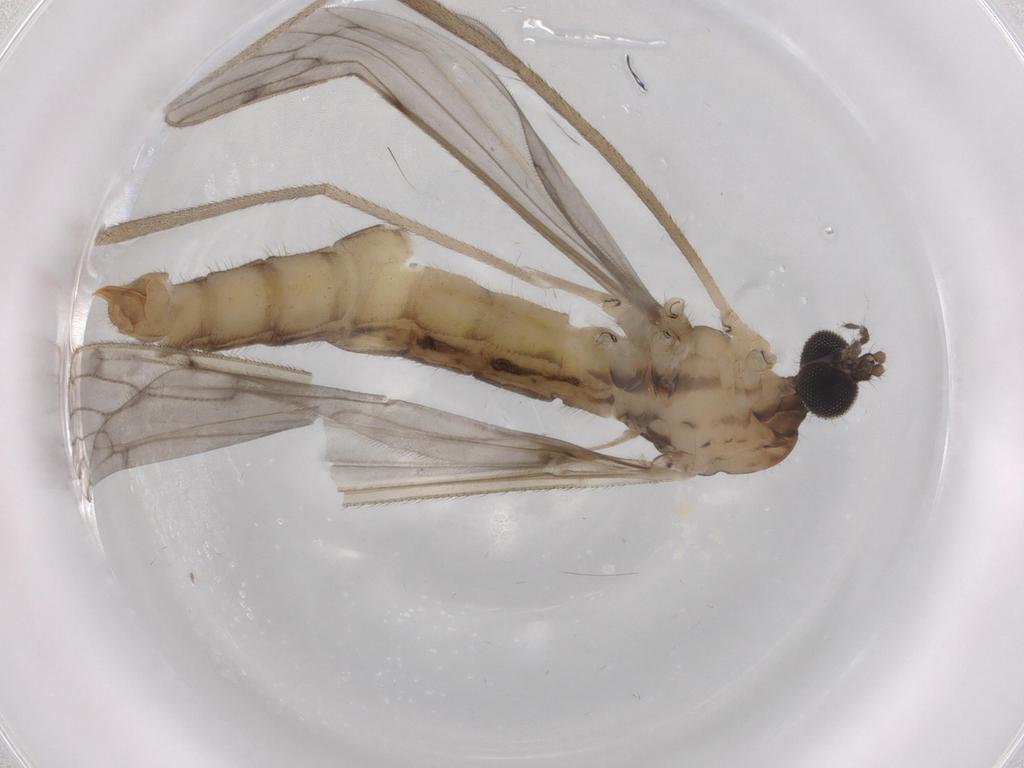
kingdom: Animalia
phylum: Arthropoda
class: Insecta
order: Diptera
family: Limoniidae
